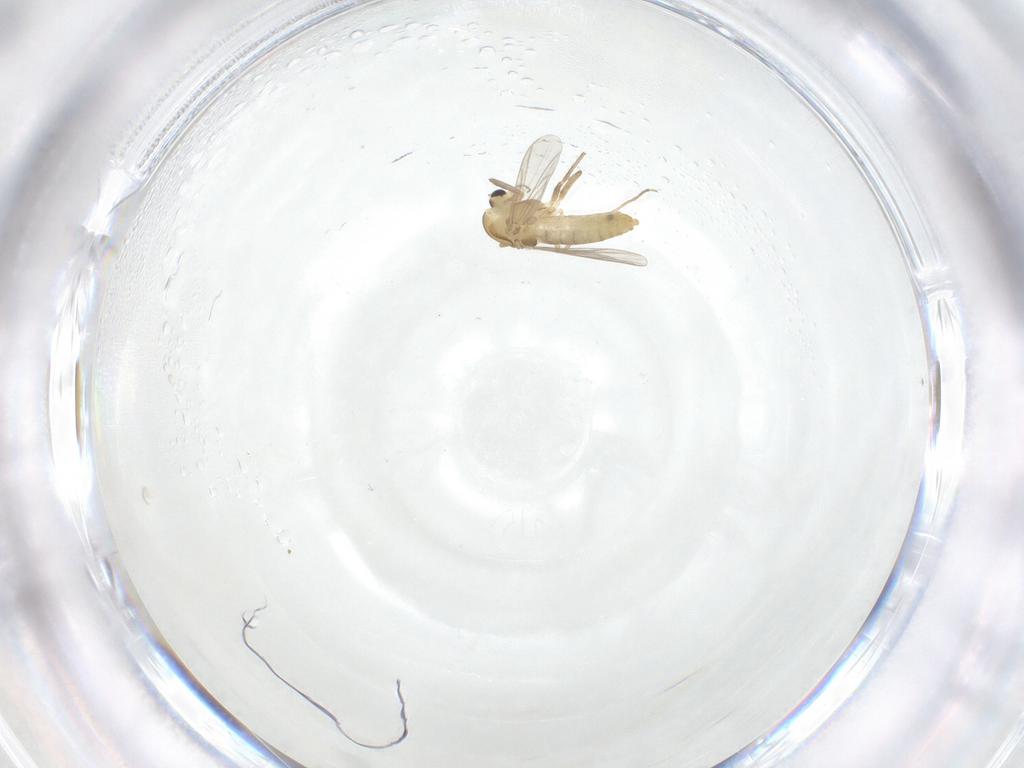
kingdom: Animalia
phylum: Arthropoda
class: Insecta
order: Diptera
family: Chironomidae
